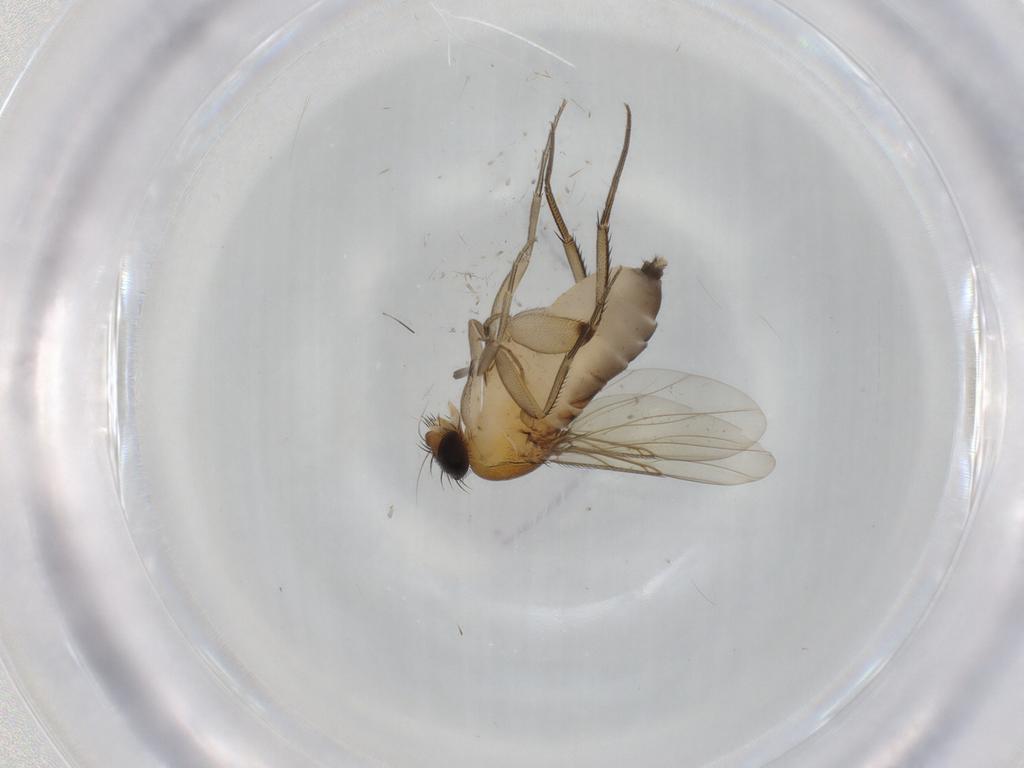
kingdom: Animalia
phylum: Arthropoda
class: Insecta
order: Diptera
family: Phoridae
